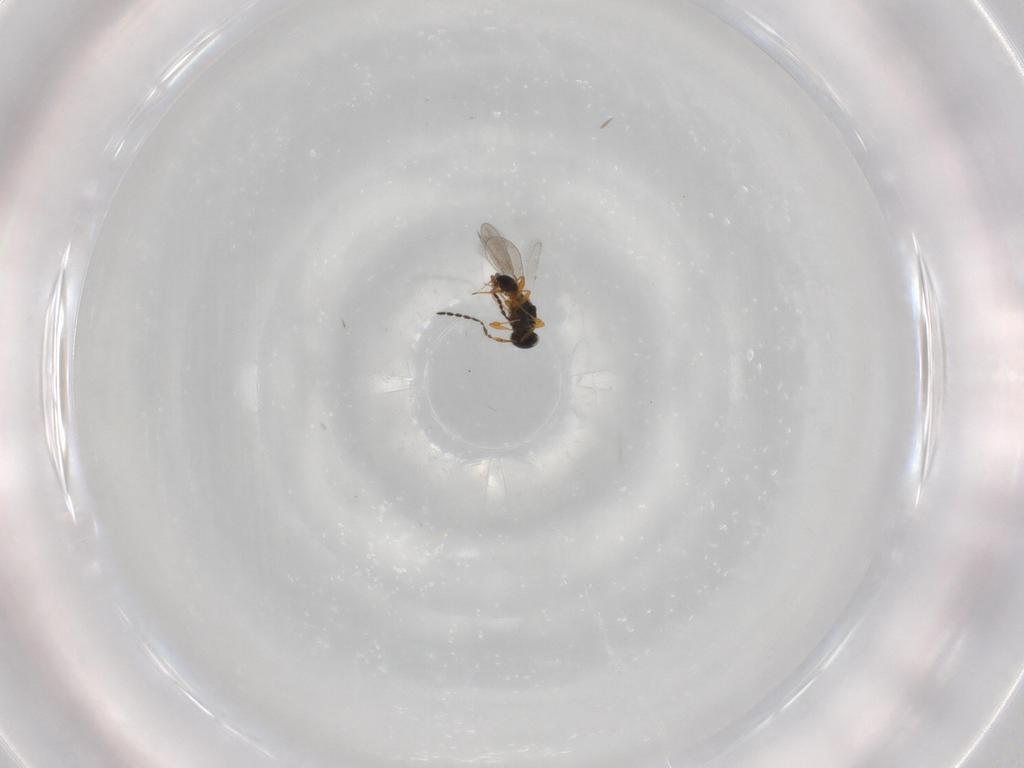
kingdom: Animalia
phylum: Arthropoda
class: Insecta
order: Hymenoptera
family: Platygastridae
